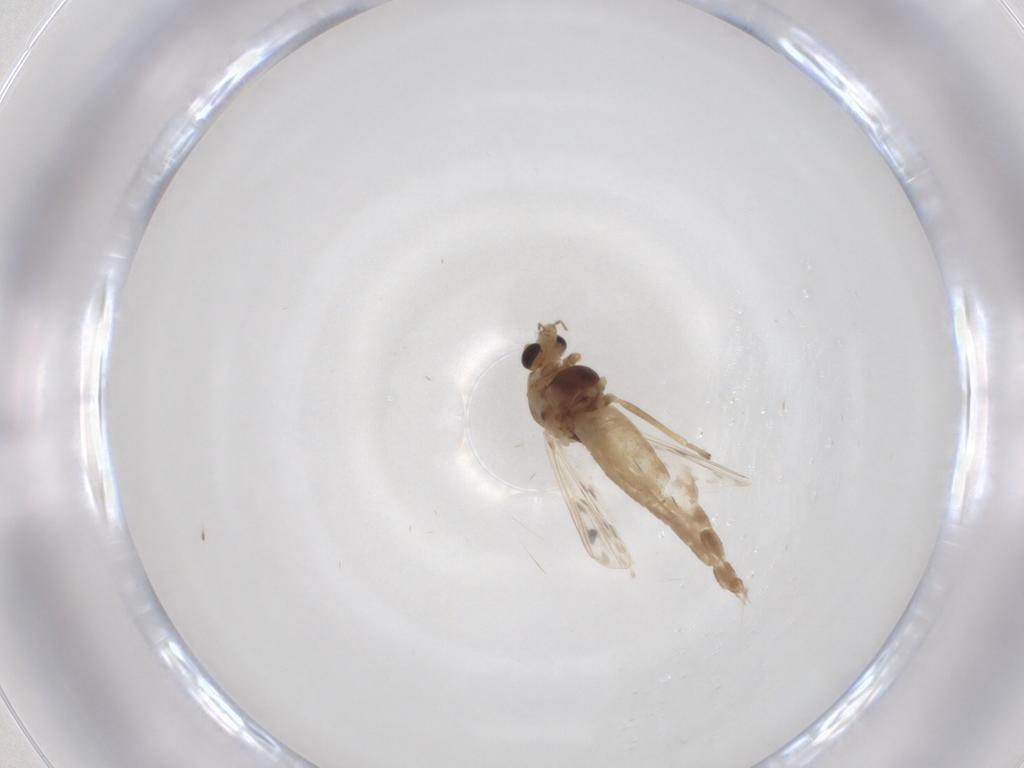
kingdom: Animalia
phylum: Arthropoda
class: Insecta
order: Diptera
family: Chironomidae
